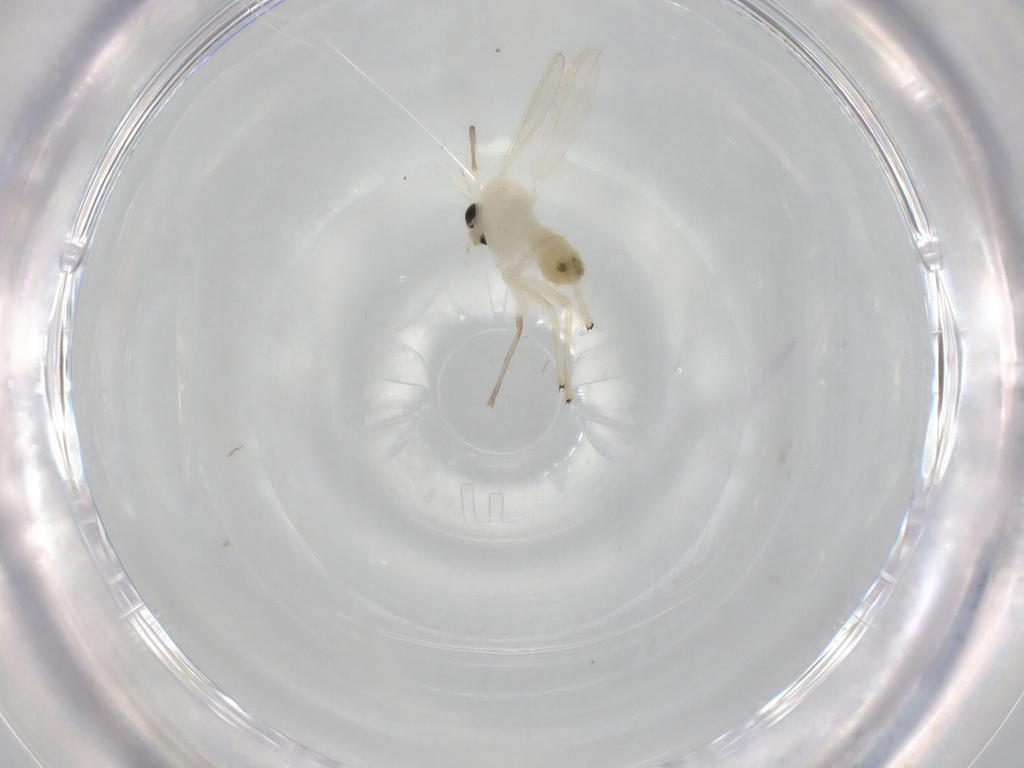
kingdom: Animalia
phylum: Arthropoda
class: Insecta
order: Diptera
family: Chironomidae
